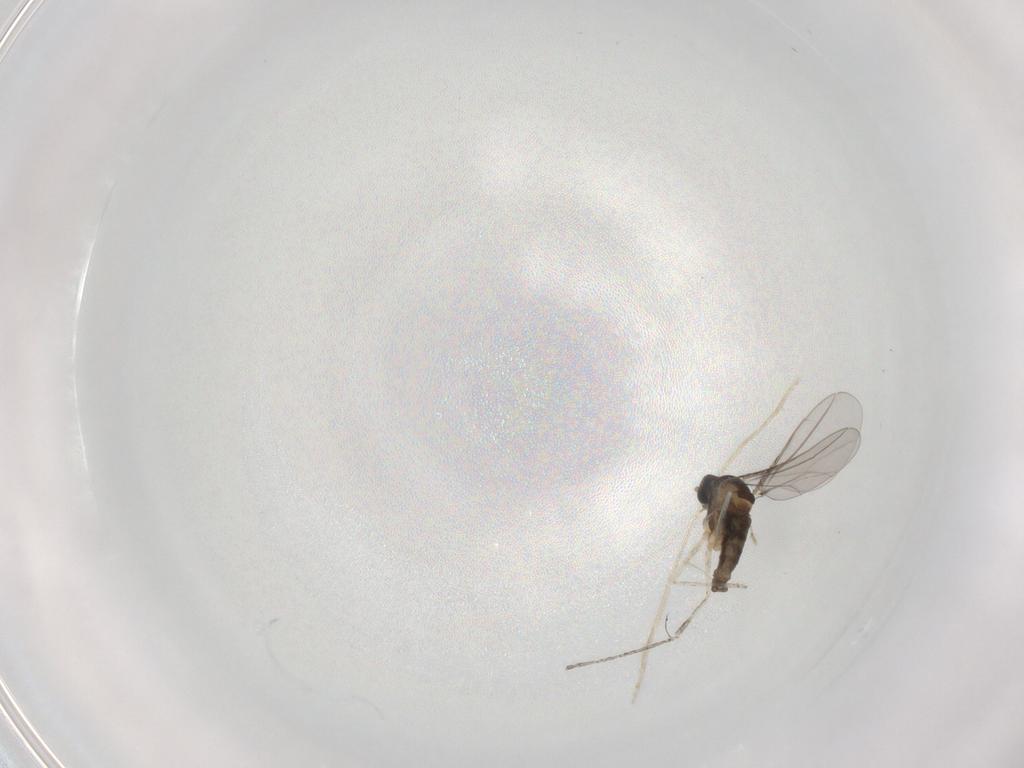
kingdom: Animalia
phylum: Arthropoda
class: Insecta
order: Diptera
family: Cecidomyiidae
